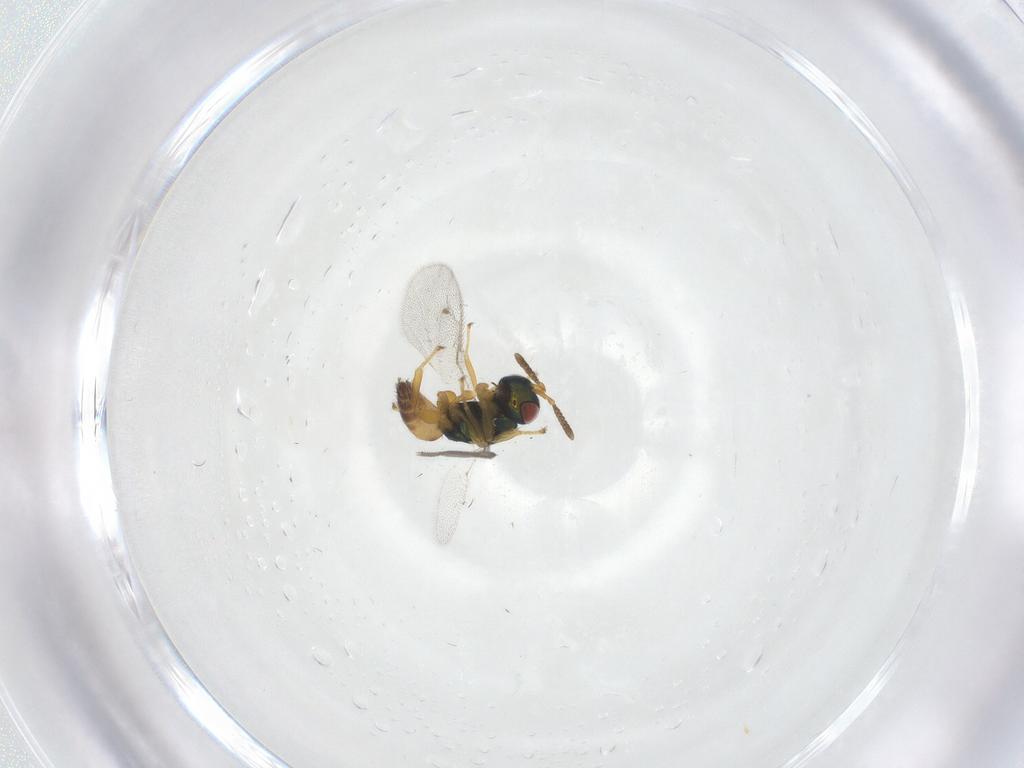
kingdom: Animalia
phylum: Arthropoda
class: Insecta
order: Hymenoptera
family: Pteromalidae
